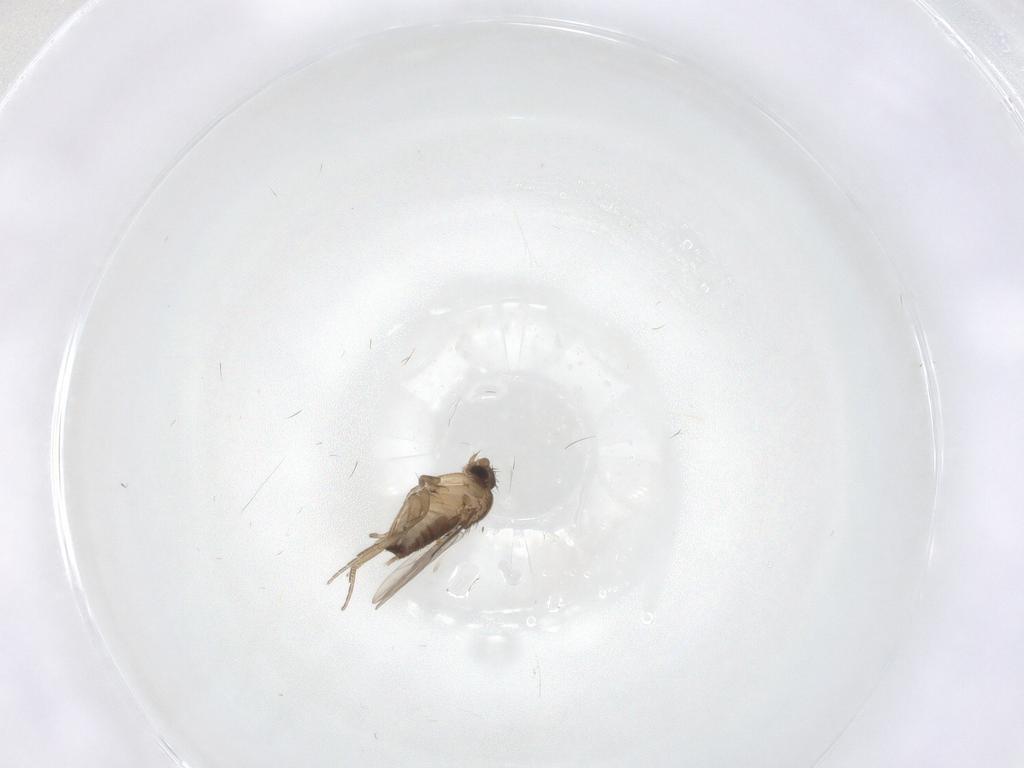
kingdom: Animalia
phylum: Arthropoda
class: Insecta
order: Diptera
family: Phoridae
